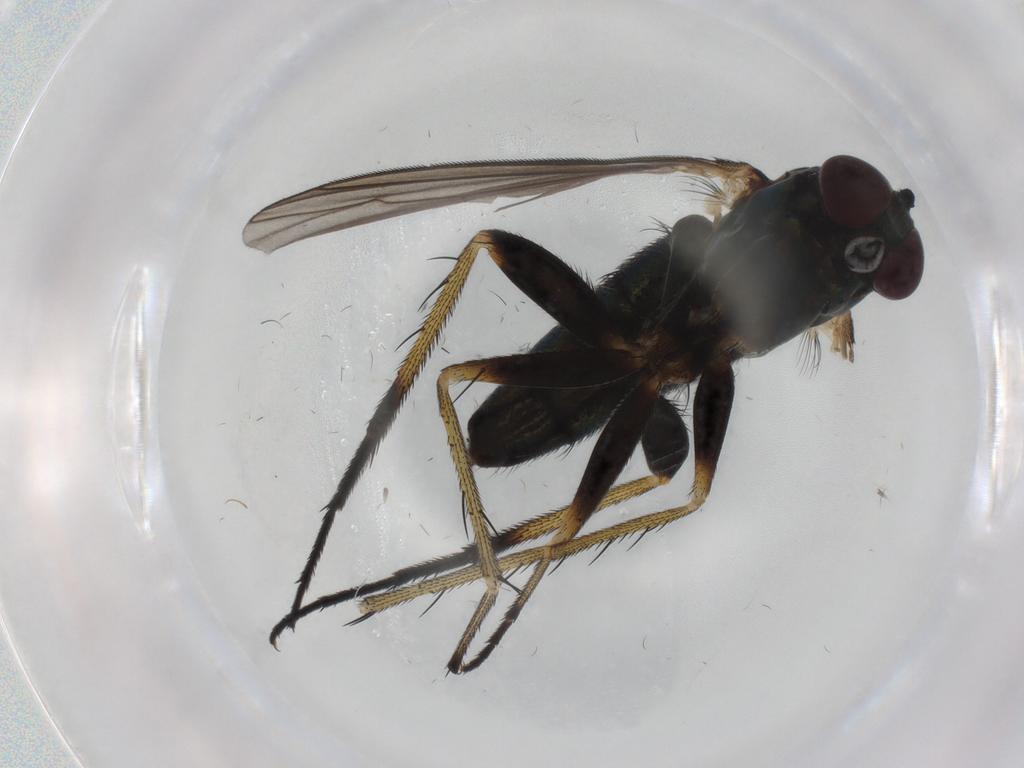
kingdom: Animalia
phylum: Arthropoda
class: Insecta
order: Diptera
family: Dolichopodidae
